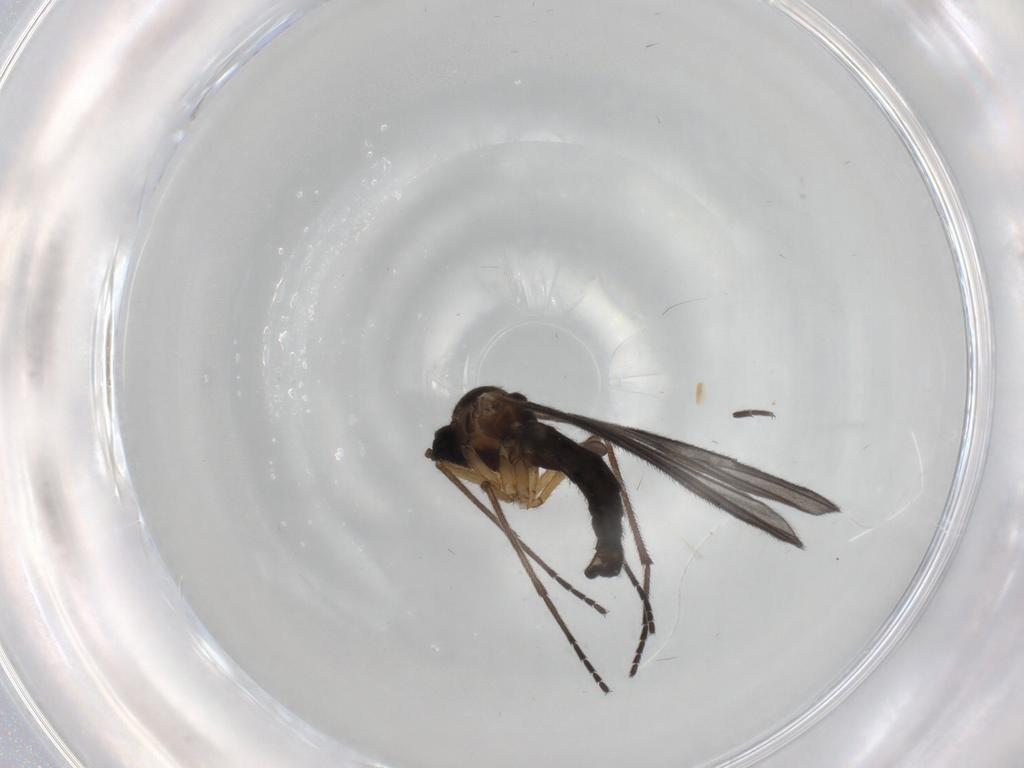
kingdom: Animalia
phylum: Arthropoda
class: Insecta
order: Diptera
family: Sciaridae
